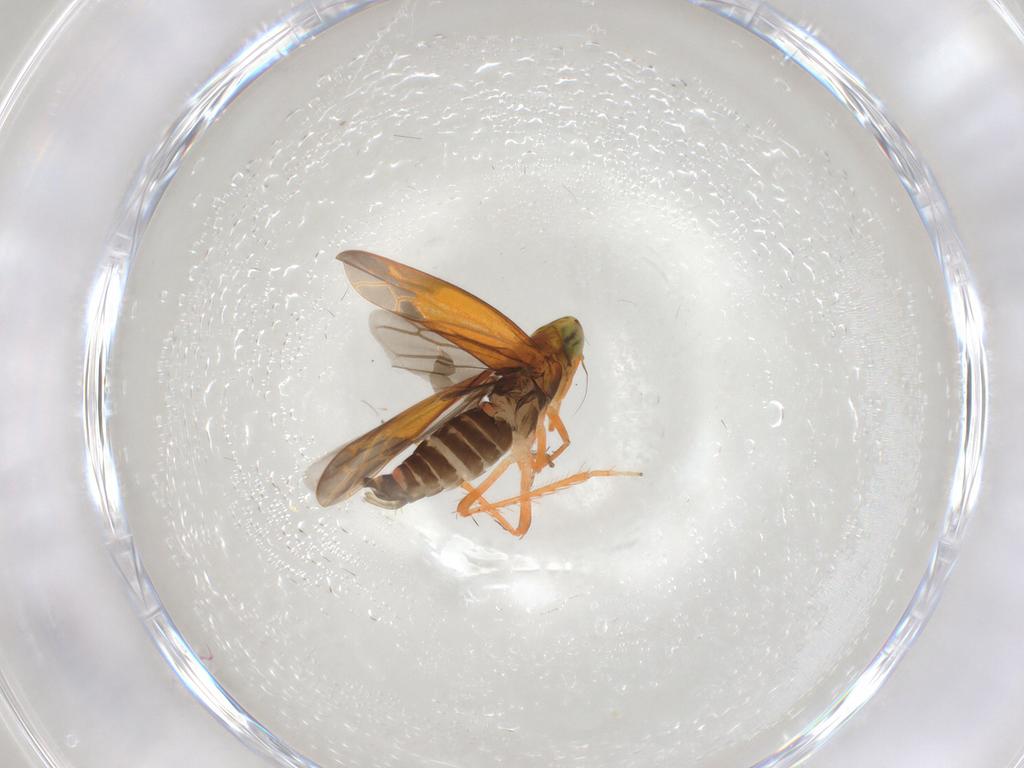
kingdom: Animalia
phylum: Arthropoda
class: Insecta
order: Hemiptera
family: Cicadellidae
